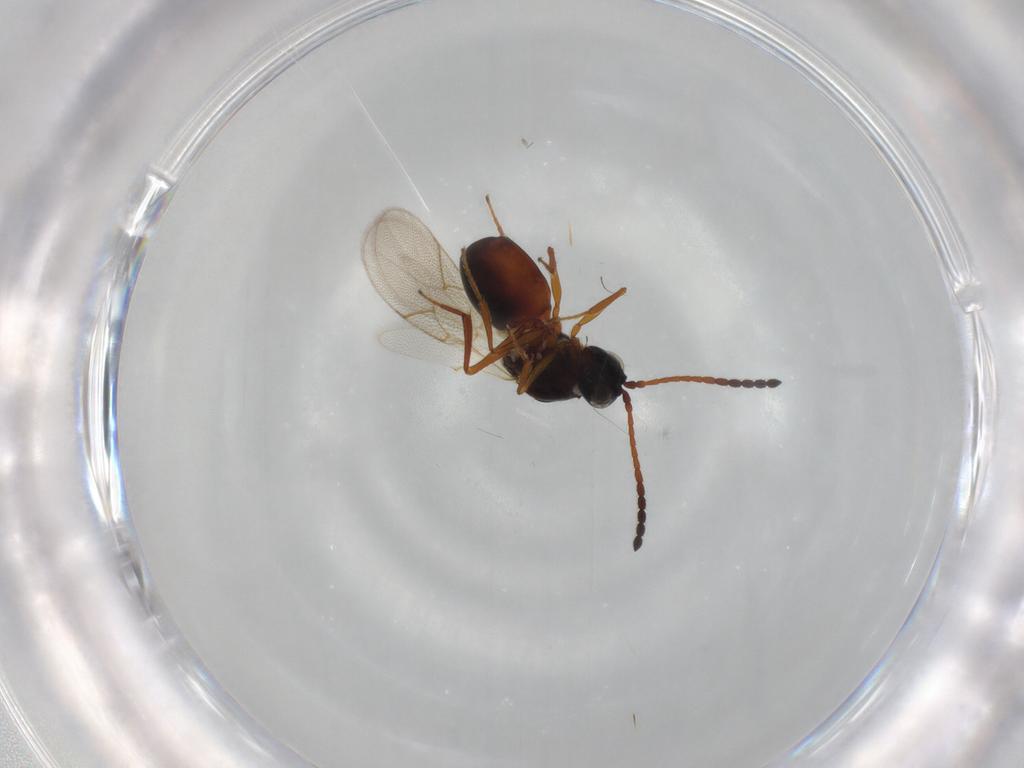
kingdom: Animalia
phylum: Arthropoda
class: Insecta
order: Hymenoptera
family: Figitidae
